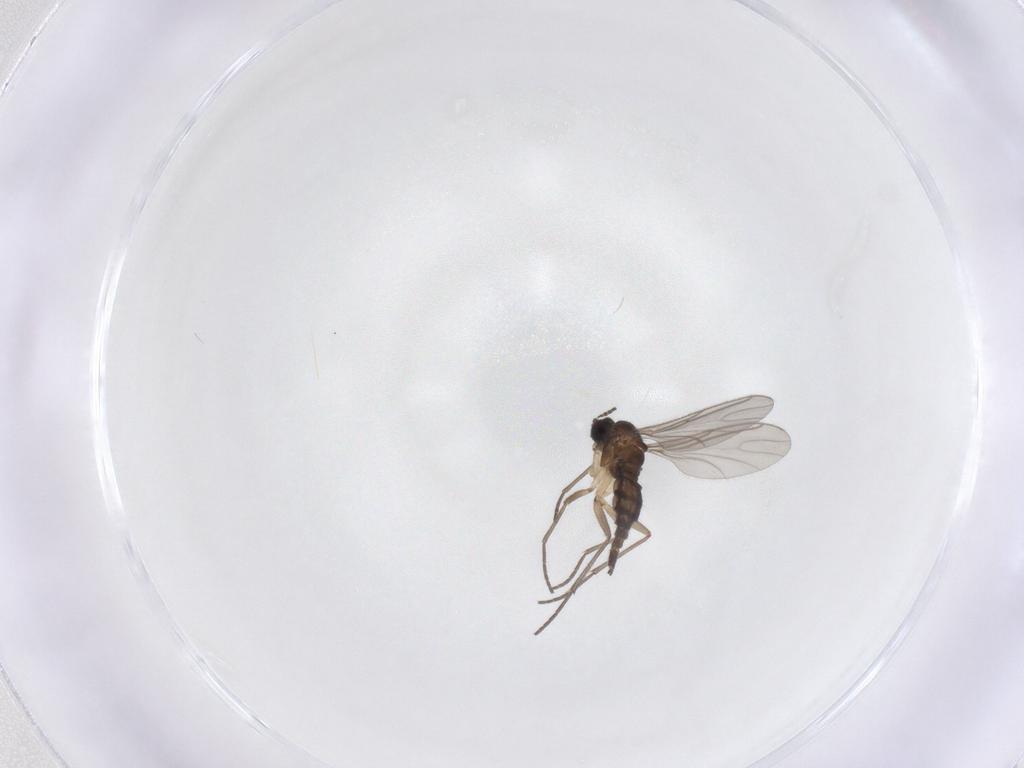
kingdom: Animalia
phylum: Arthropoda
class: Insecta
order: Diptera
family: Sciaridae
